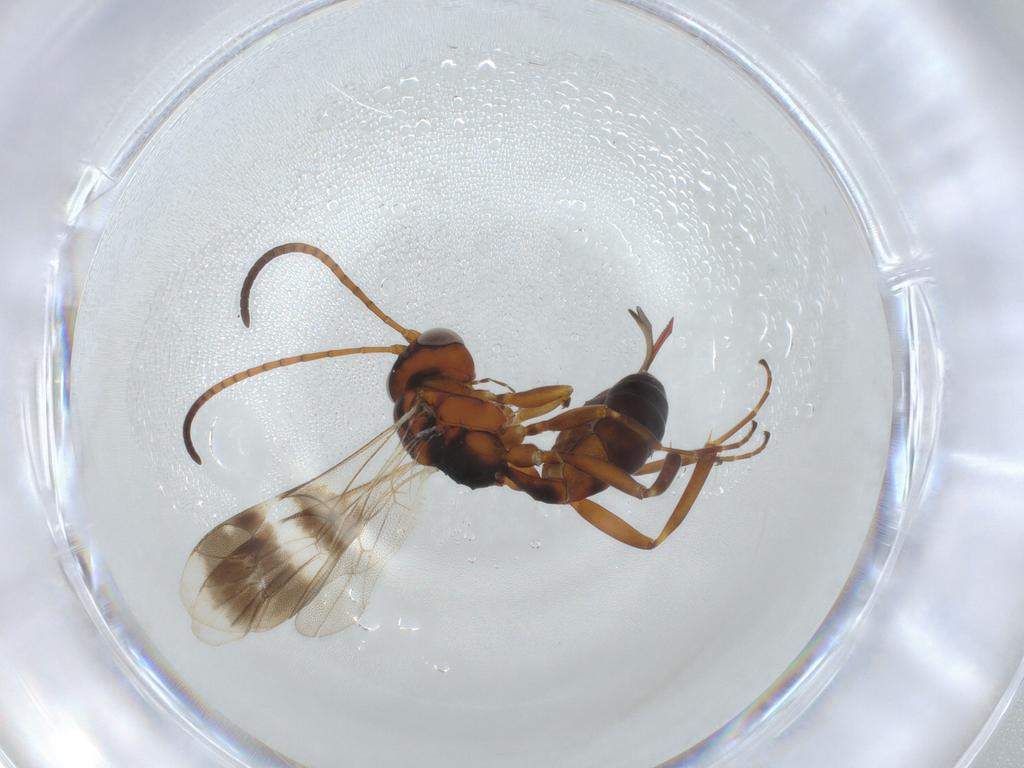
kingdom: Animalia
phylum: Arthropoda
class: Insecta
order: Hymenoptera
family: Ichneumonidae
